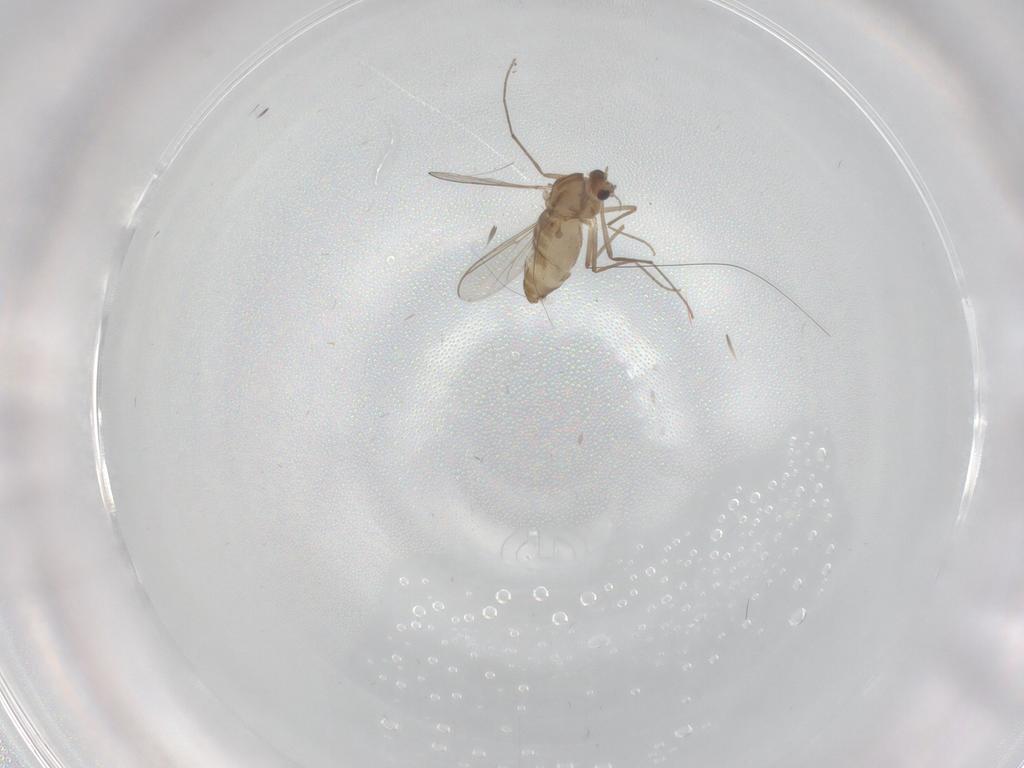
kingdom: Animalia
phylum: Arthropoda
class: Insecta
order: Diptera
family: Chironomidae
